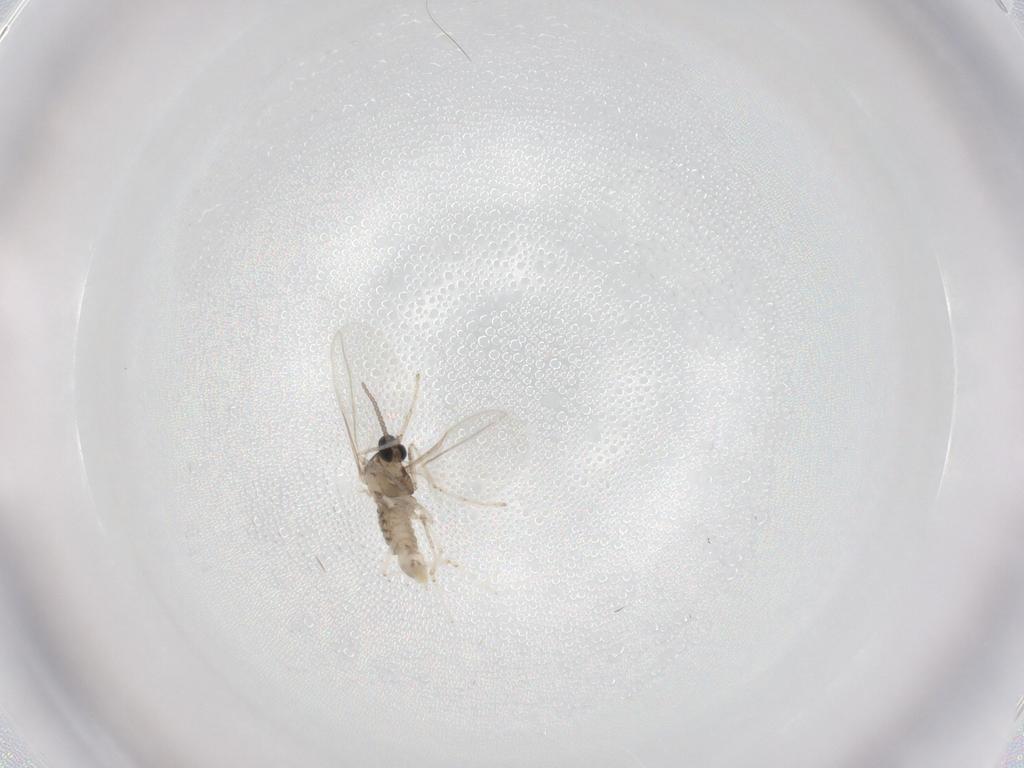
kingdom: Animalia
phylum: Arthropoda
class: Insecta
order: Diptera
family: Cecidomyiidae
